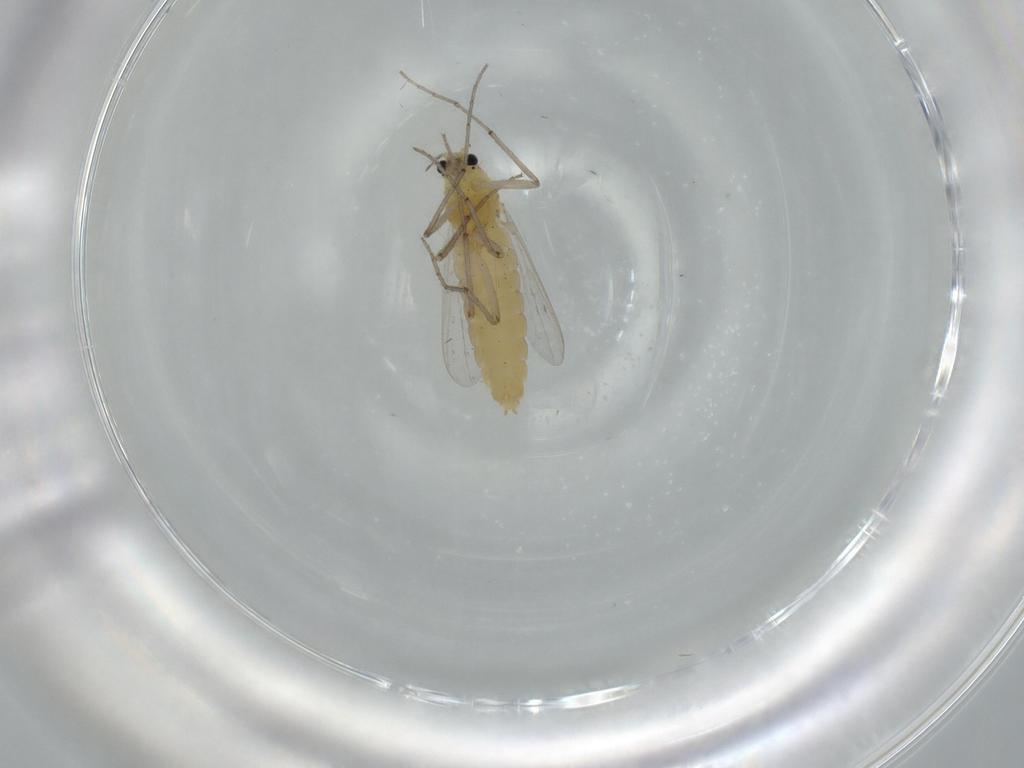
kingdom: Animalia
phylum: Arthropoda
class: Insecta
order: Diptera
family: Chironomidae
